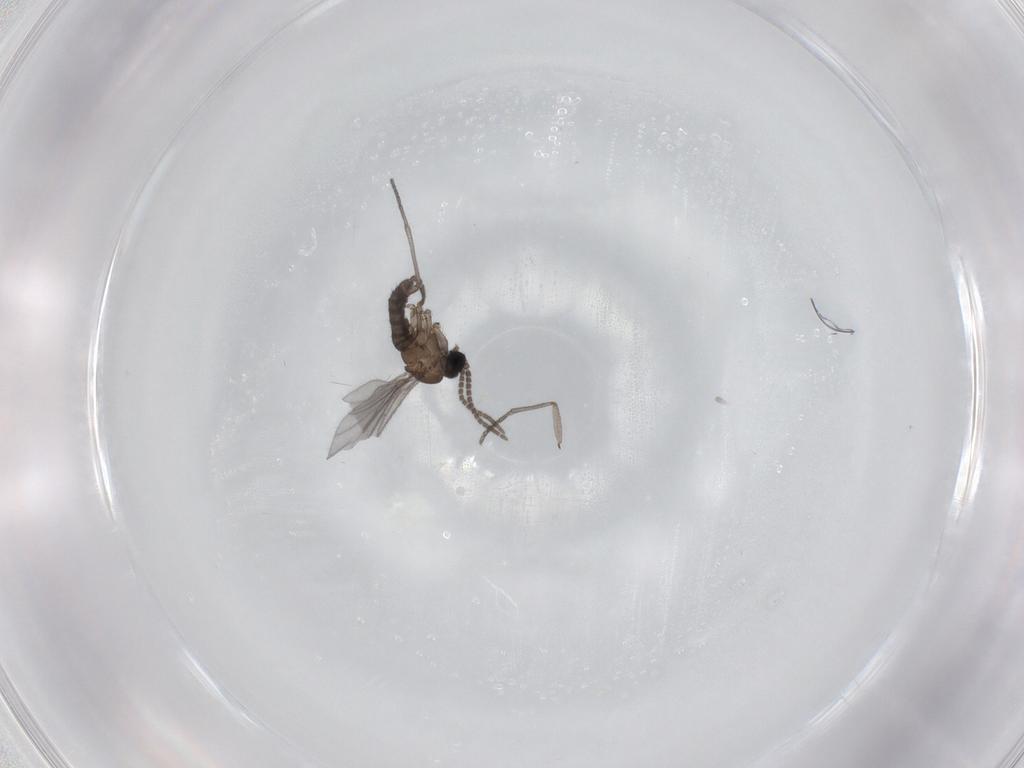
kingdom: Animalia
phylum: Arthropoda
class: Insecta
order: Diptera
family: Sciaridae
